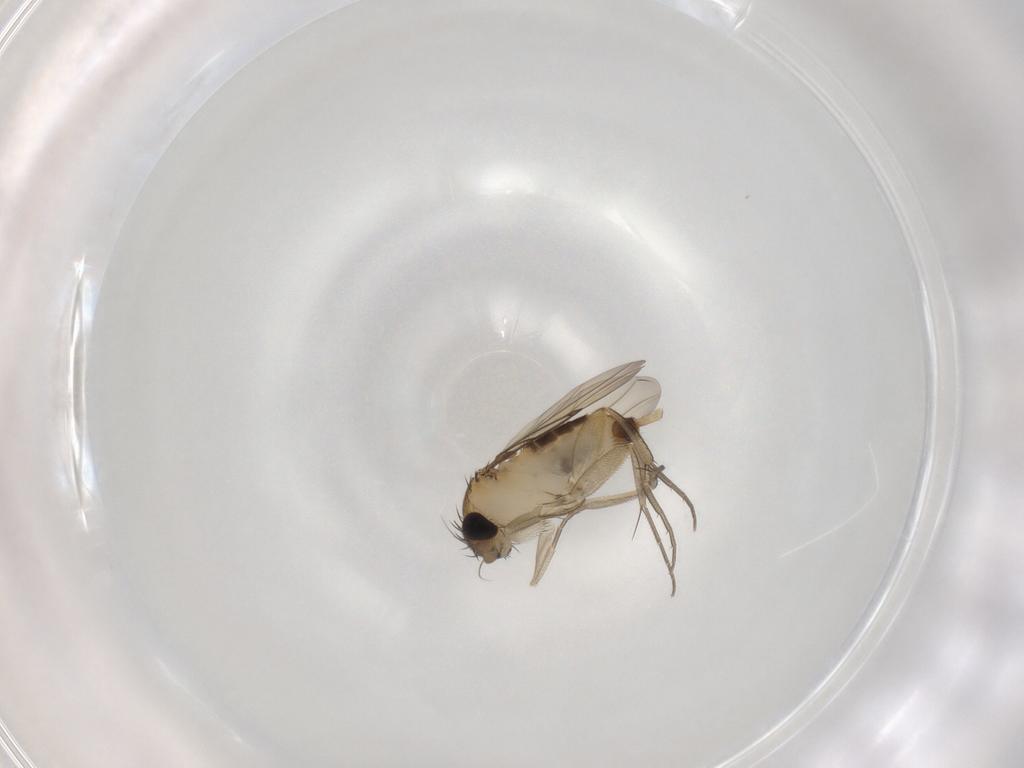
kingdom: Animalia
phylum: Arthropoda
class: Insecta
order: Diptera
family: Phoridae
